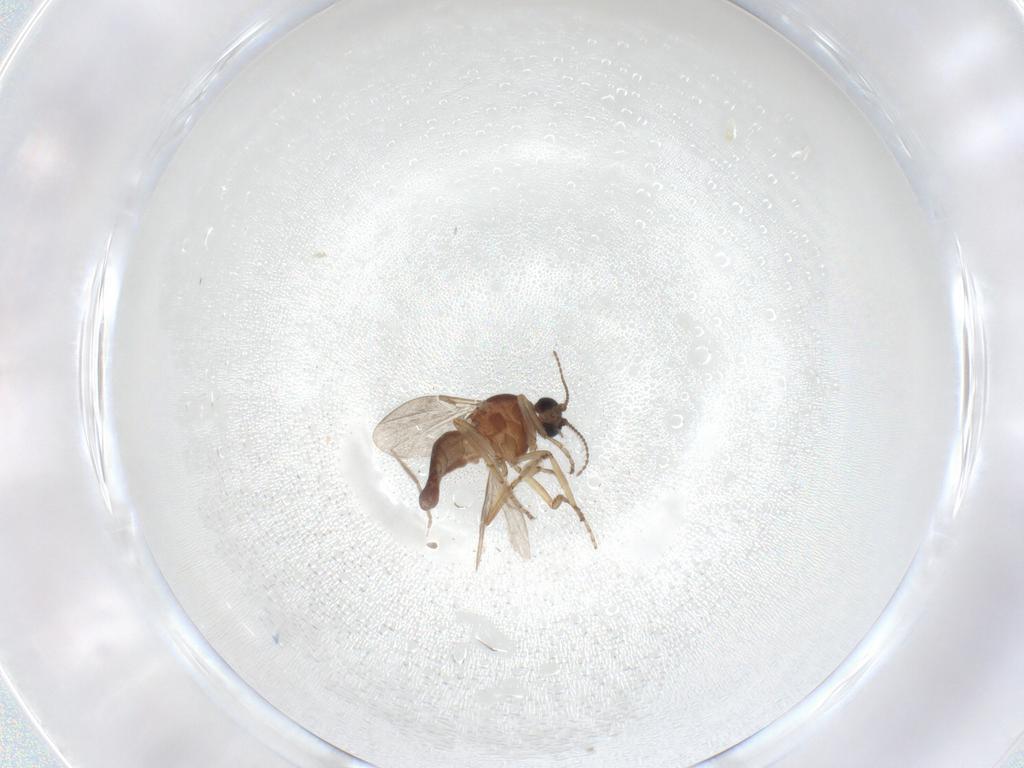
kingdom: Animalia
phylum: Arthropoda
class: Insecta
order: Diptera
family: Ceratopogonidae
